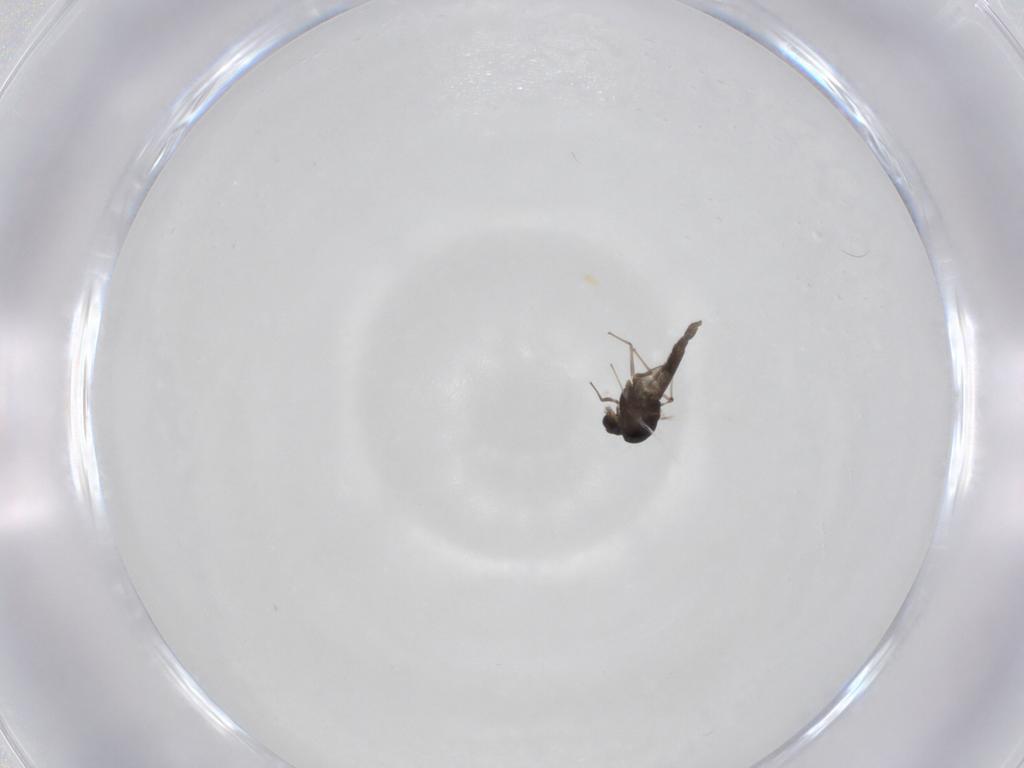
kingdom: Animalia
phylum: Arthropoda
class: Insecta
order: Diptera
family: Chironomidae
